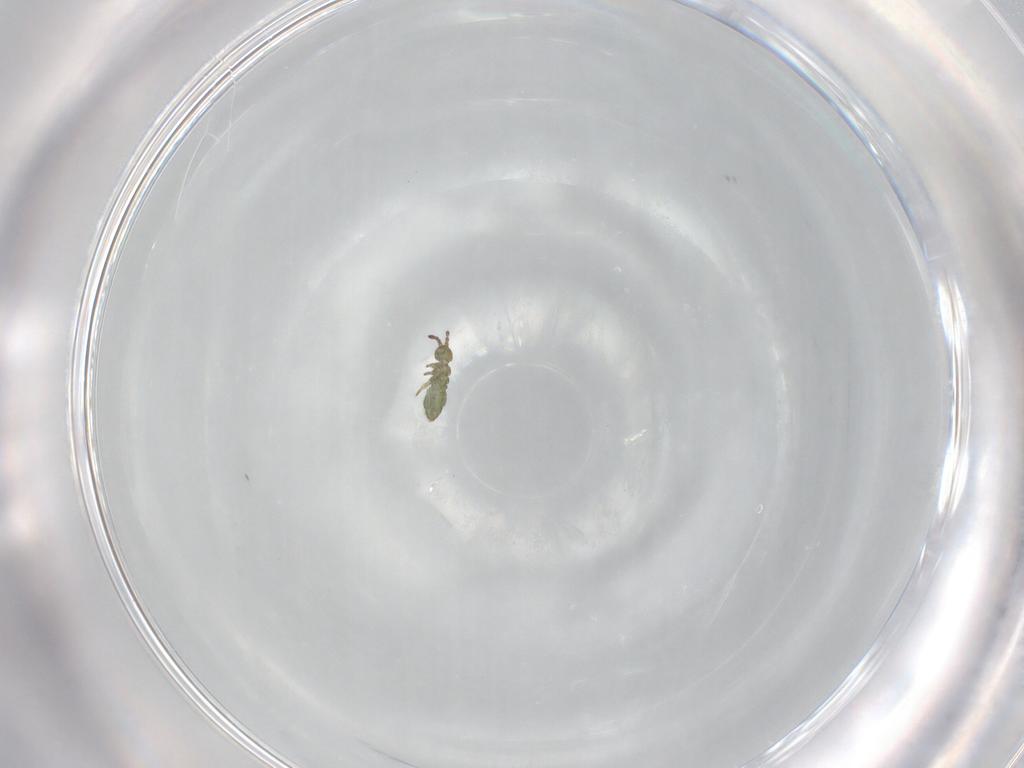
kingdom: Animalia
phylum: Arthropoda
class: Collembola
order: Entomobryomorpha
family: Isotomidae
